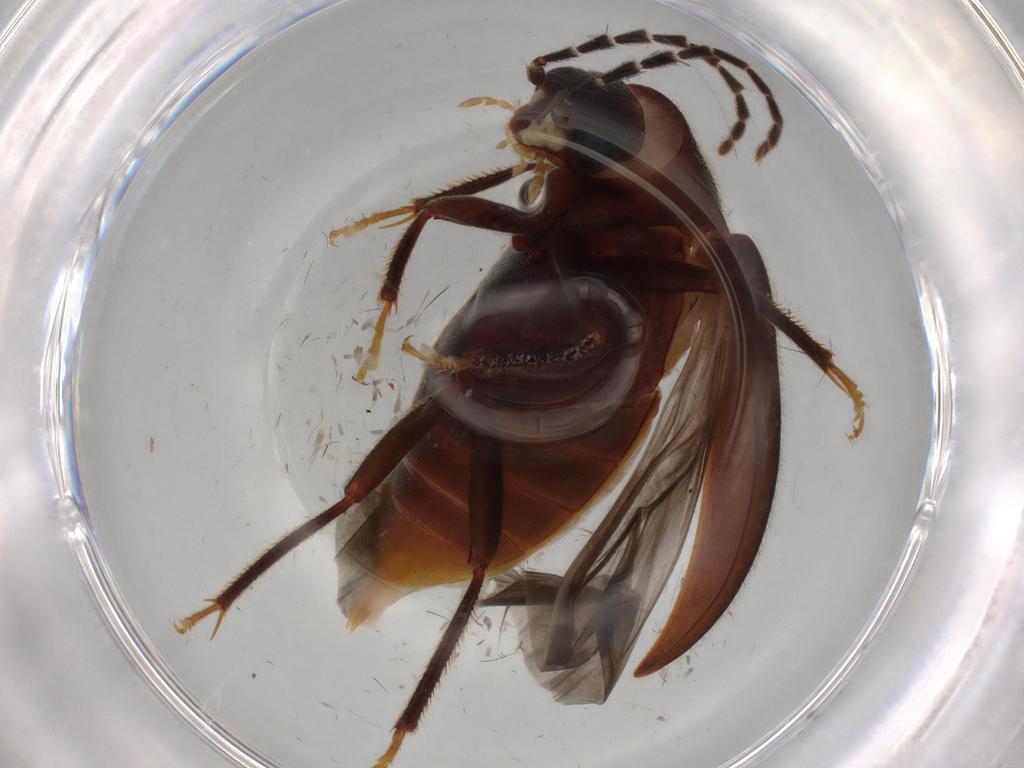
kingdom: Animalia
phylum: Arthropoda
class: Insecta
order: Coleoptera
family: Ptilodactylidae
